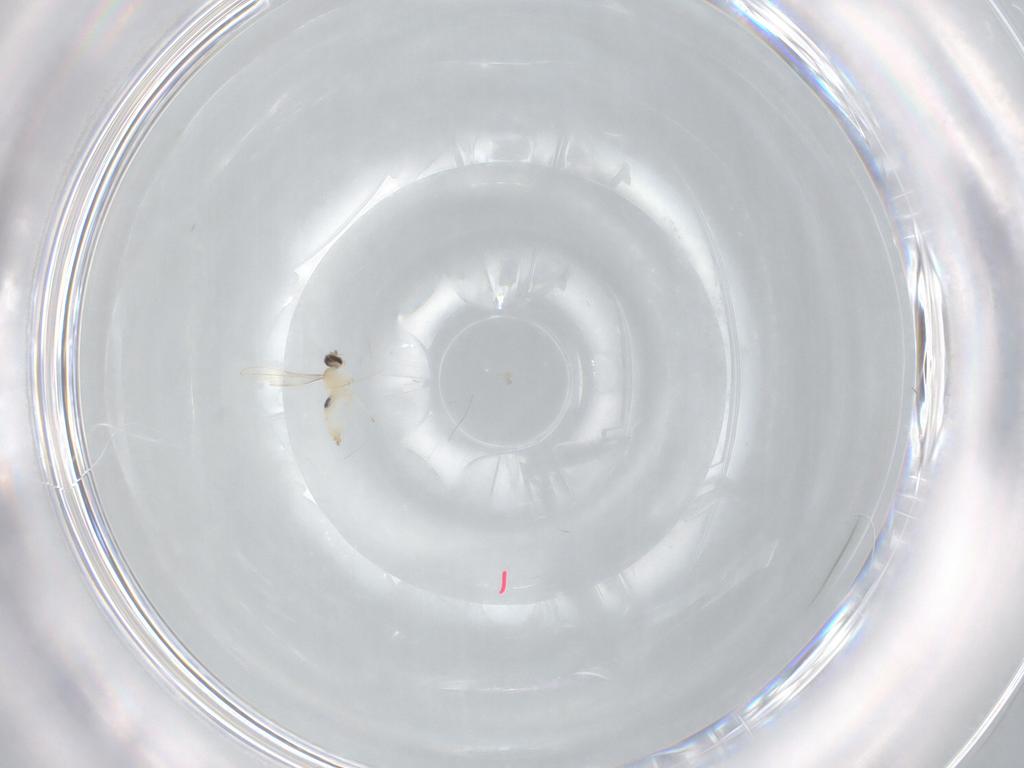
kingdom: Animalia
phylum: Arthropoda
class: Insecta
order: Diptera
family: Cecidomyiidae
